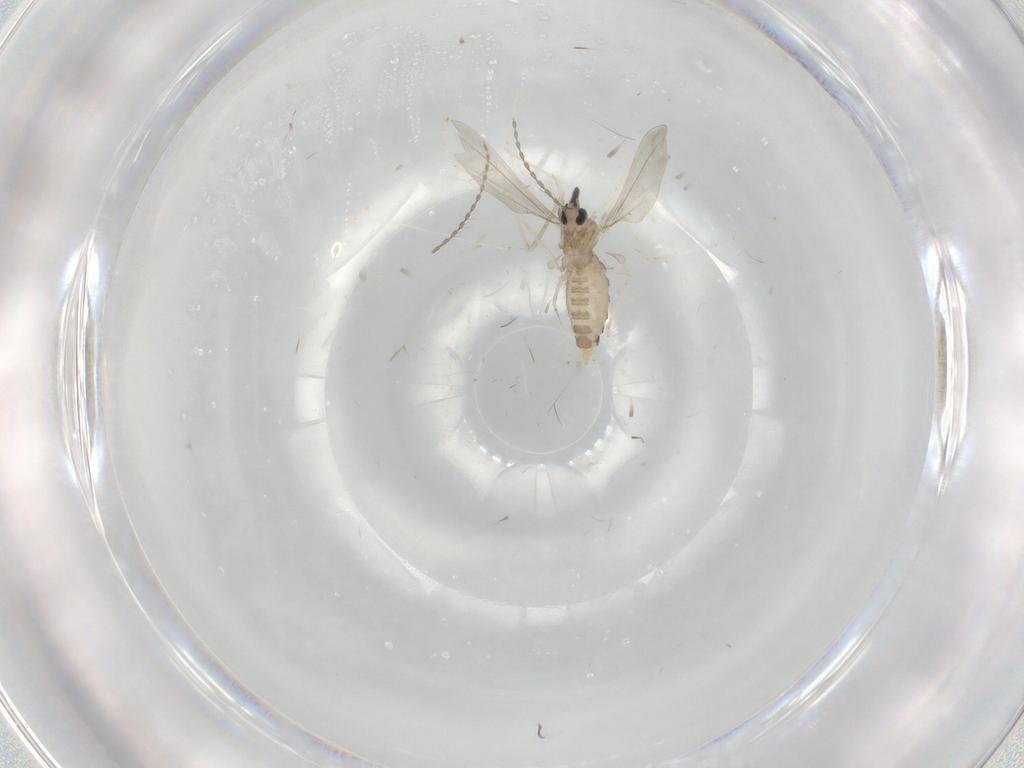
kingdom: Animalia
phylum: Arthropoda
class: Insecta
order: Diptera
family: Cecidomyiidae
